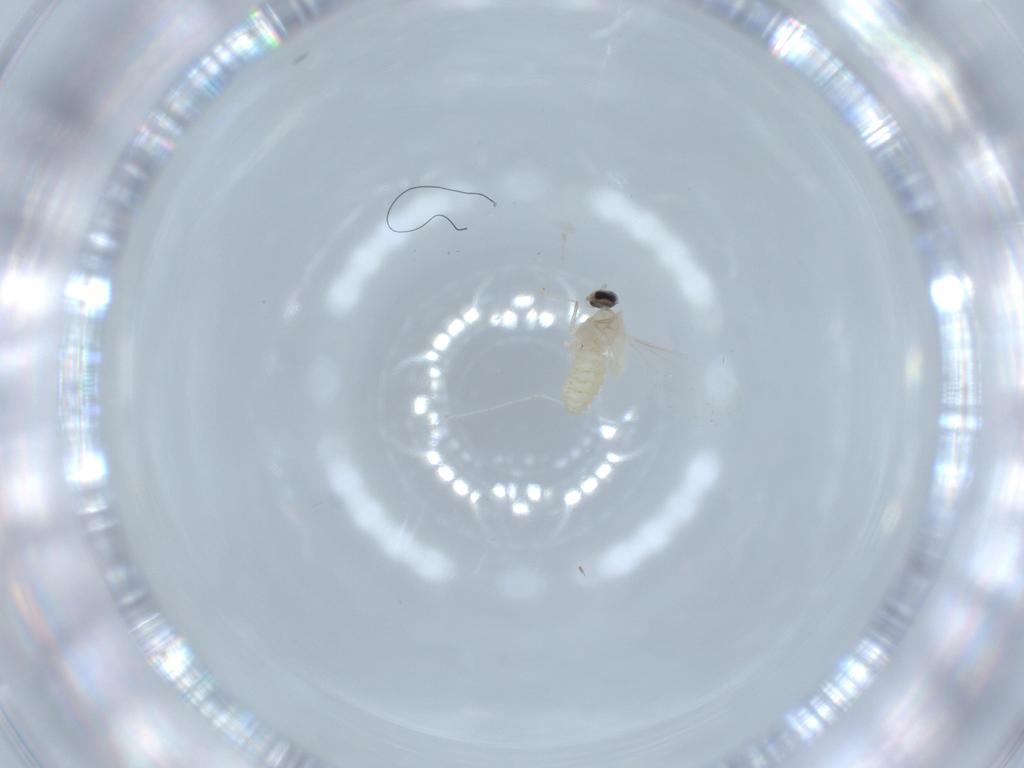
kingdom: Animalia
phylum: Arthropoda
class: Insecta
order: Diptera
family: Cecidomyiidae
